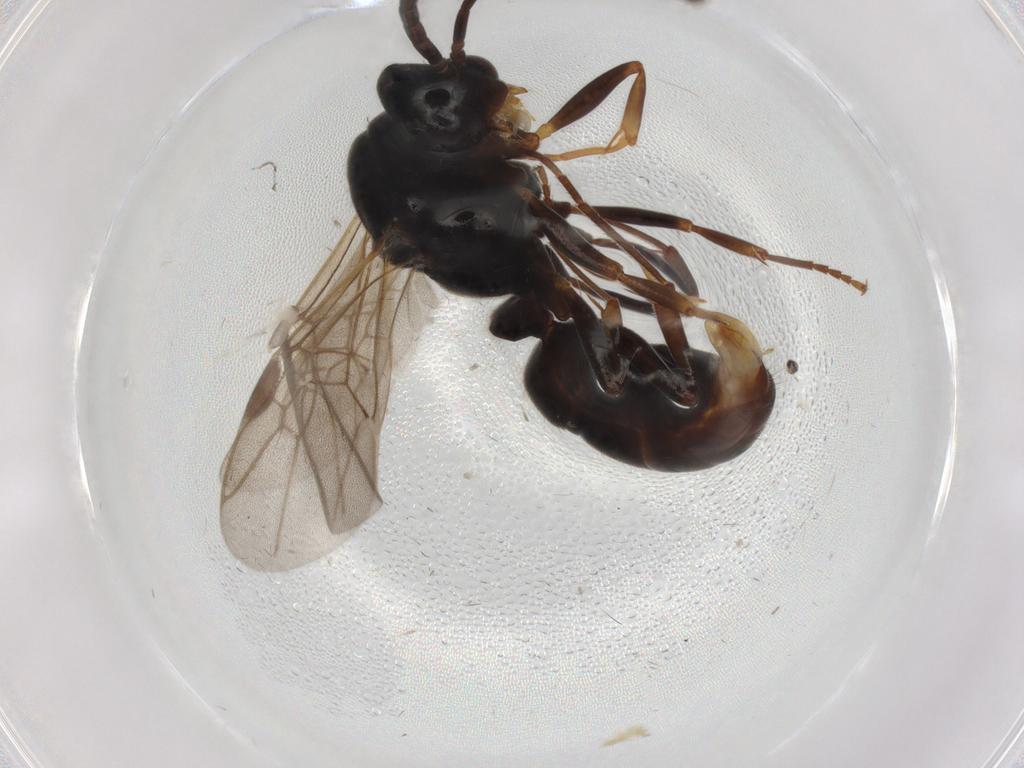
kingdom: Animalia
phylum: Arthropoda
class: Insecta
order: Hymenoptera
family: Formicidae
